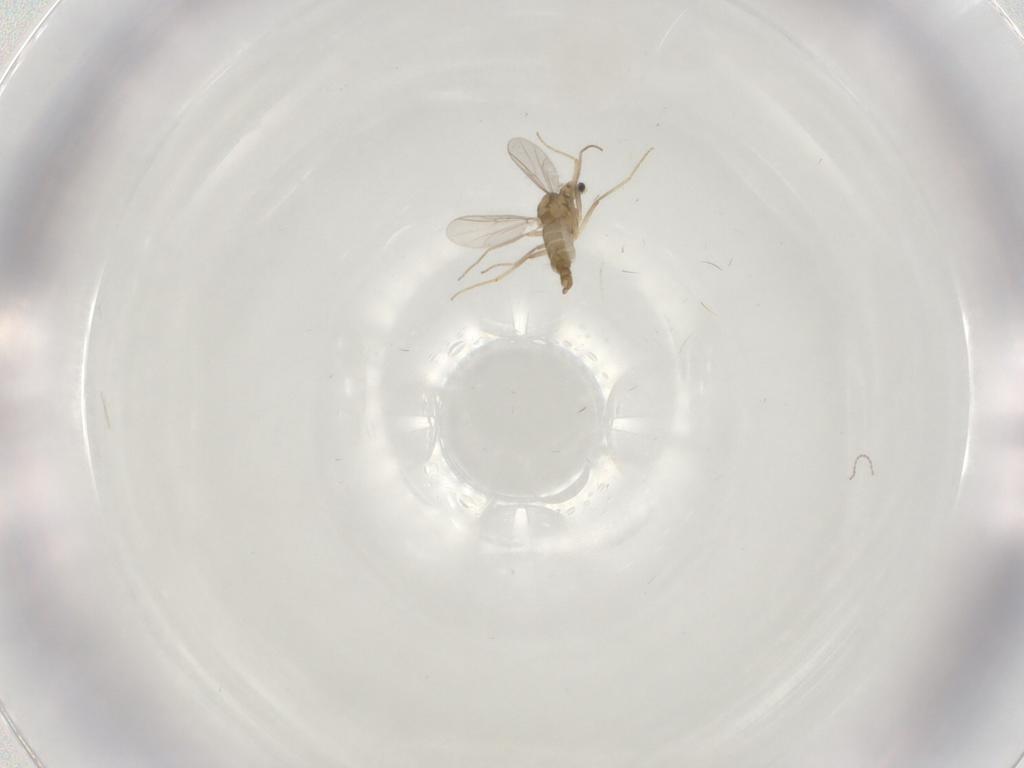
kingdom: Animalia
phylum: Arthropoda
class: Insecta
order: Diptera
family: Chironomidae
